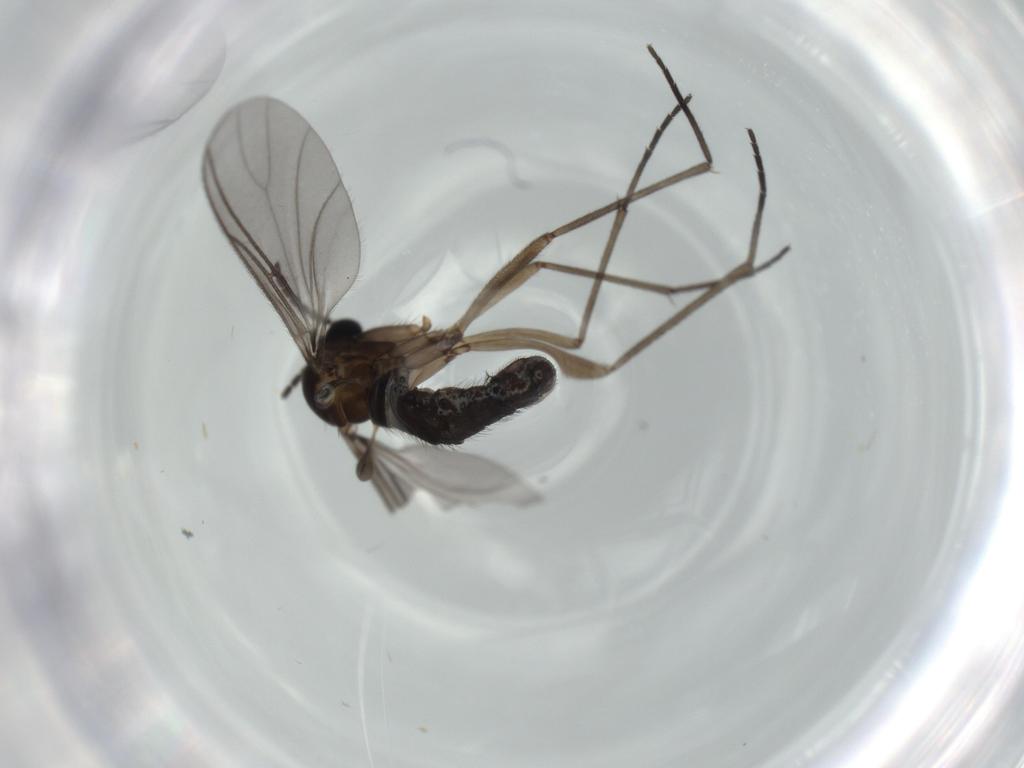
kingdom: Animalia
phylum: Arthropoda
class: Insecta
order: Diptera
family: Sciaridae
